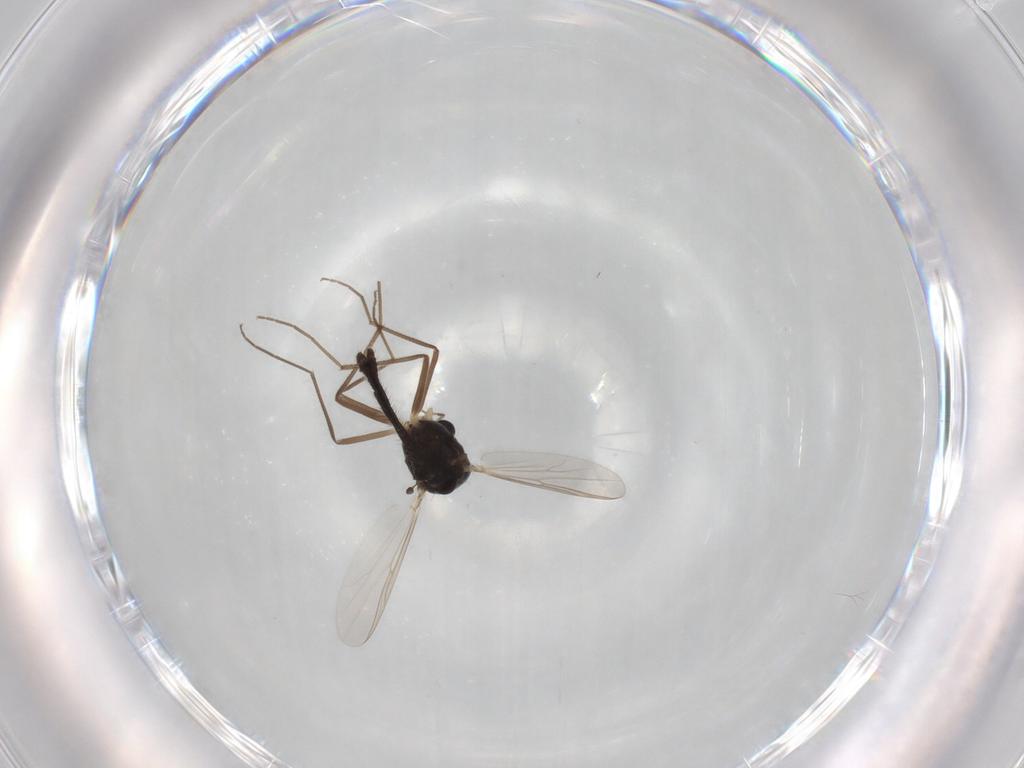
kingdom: Animalia
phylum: Arthropoda
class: Insecta
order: Diptera
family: Chironomidae
